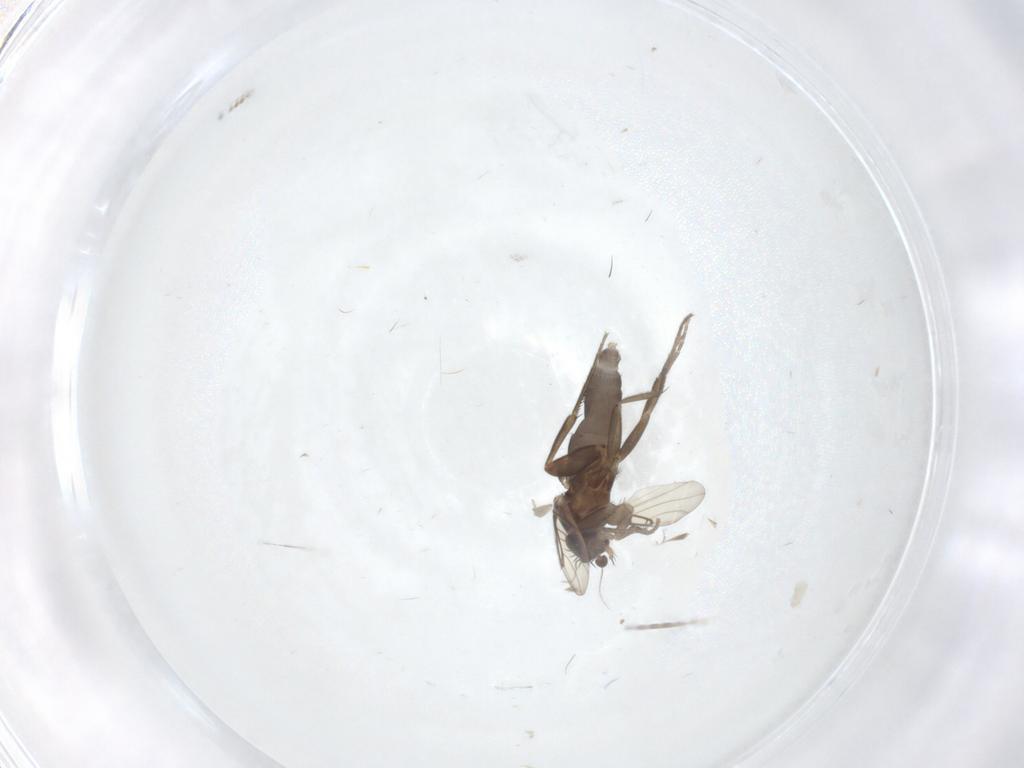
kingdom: Animalia
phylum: Arthropoda
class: Insecta
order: Diptera
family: Phoridae
